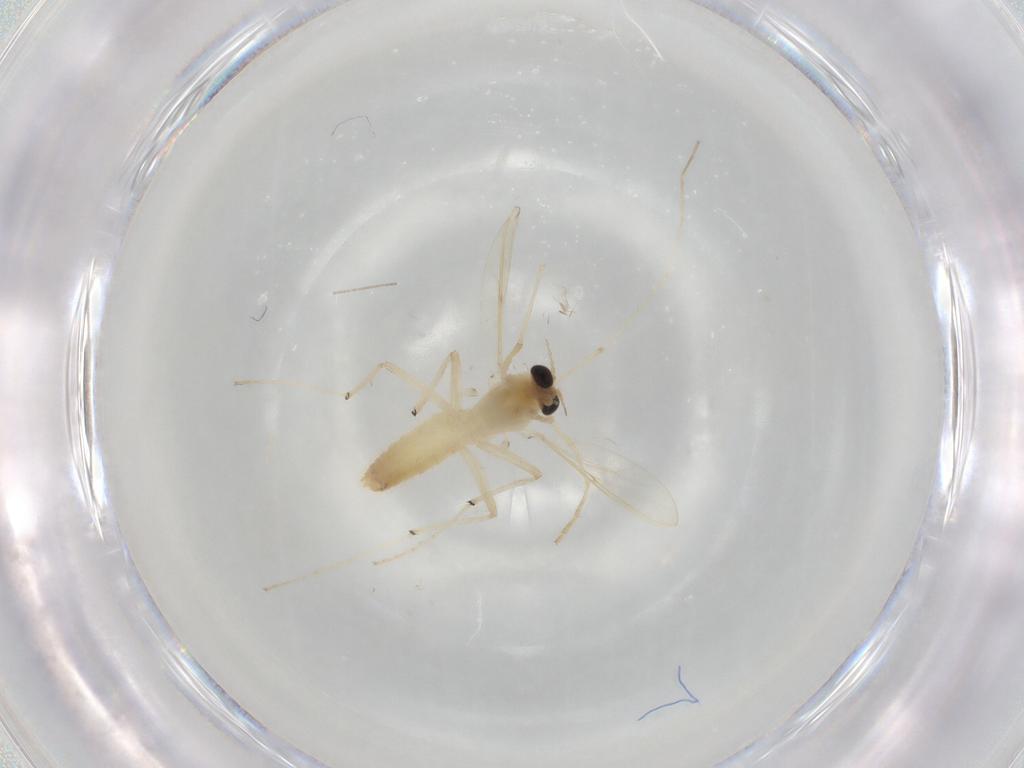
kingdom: Animalia
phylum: Arthropoda
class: Insecta
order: Diptera
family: Chironomidae
